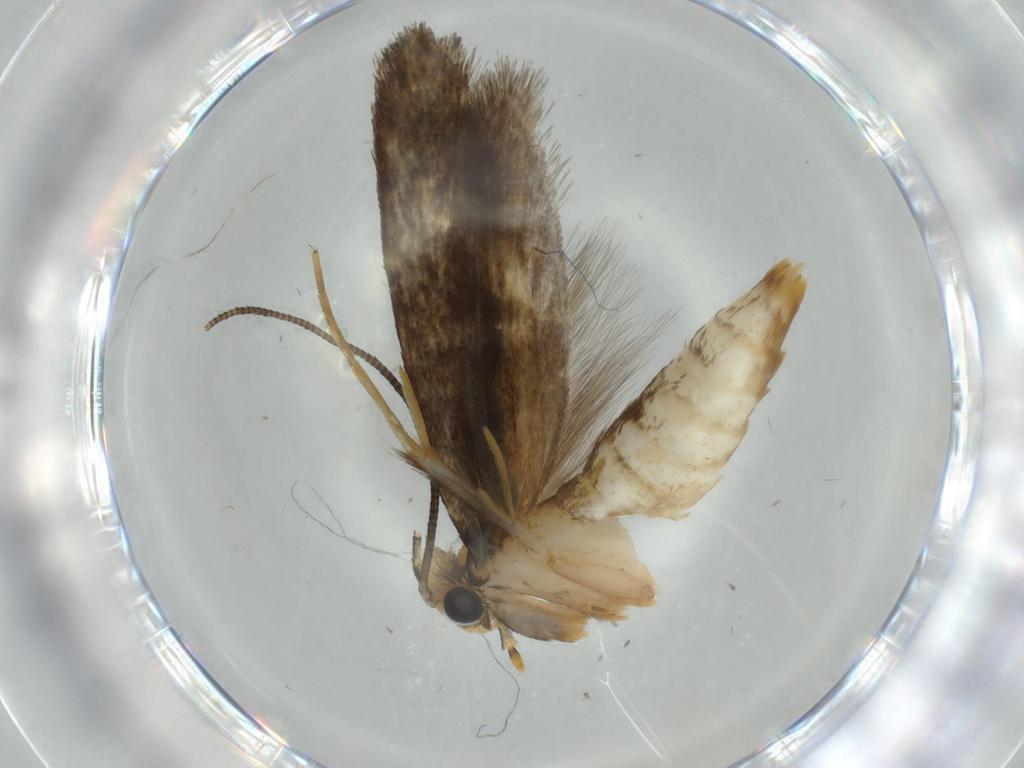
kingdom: Animalia
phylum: Arthropoda
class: Insecta
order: Lepidoptera
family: Tineidae
